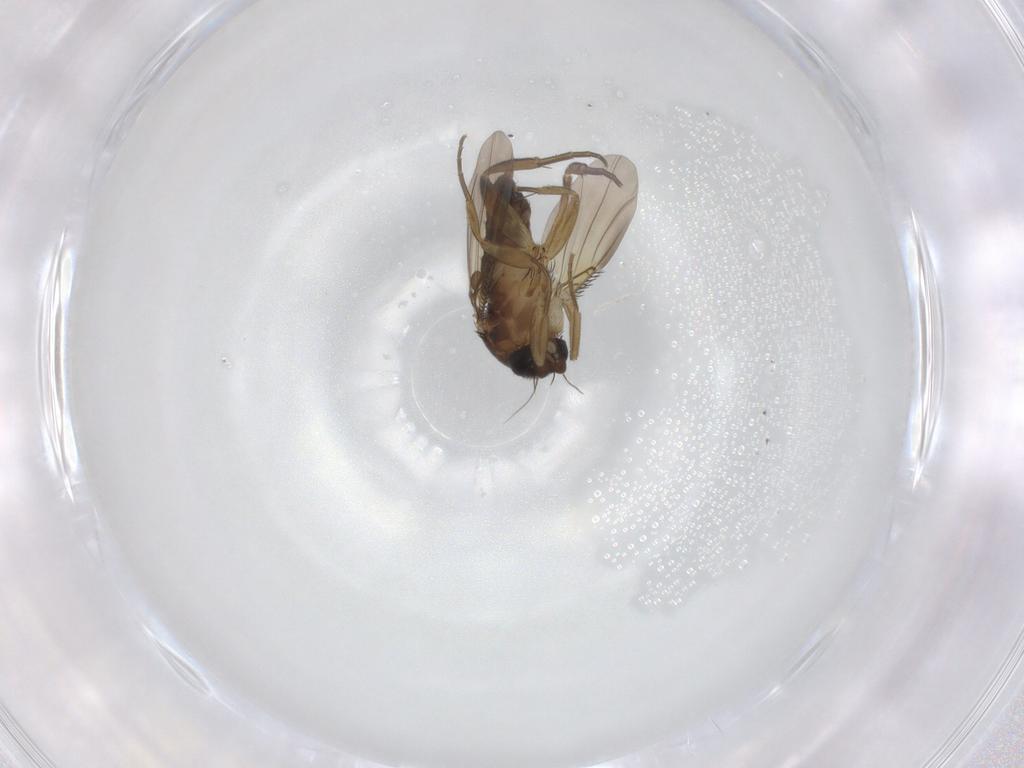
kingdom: Animalia
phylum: Arthropoda
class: Insecta
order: Diptera
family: Phoridae
